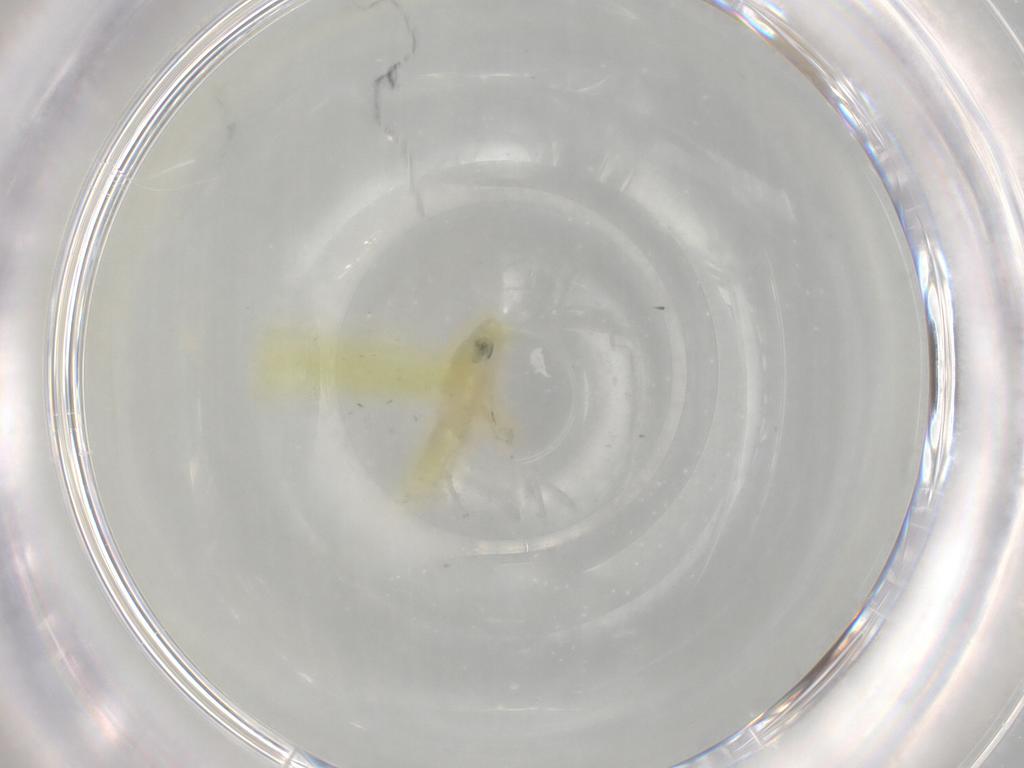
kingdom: Animalia
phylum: Arthropoda
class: Insecta
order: Hemiptera
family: Cicadellidae
